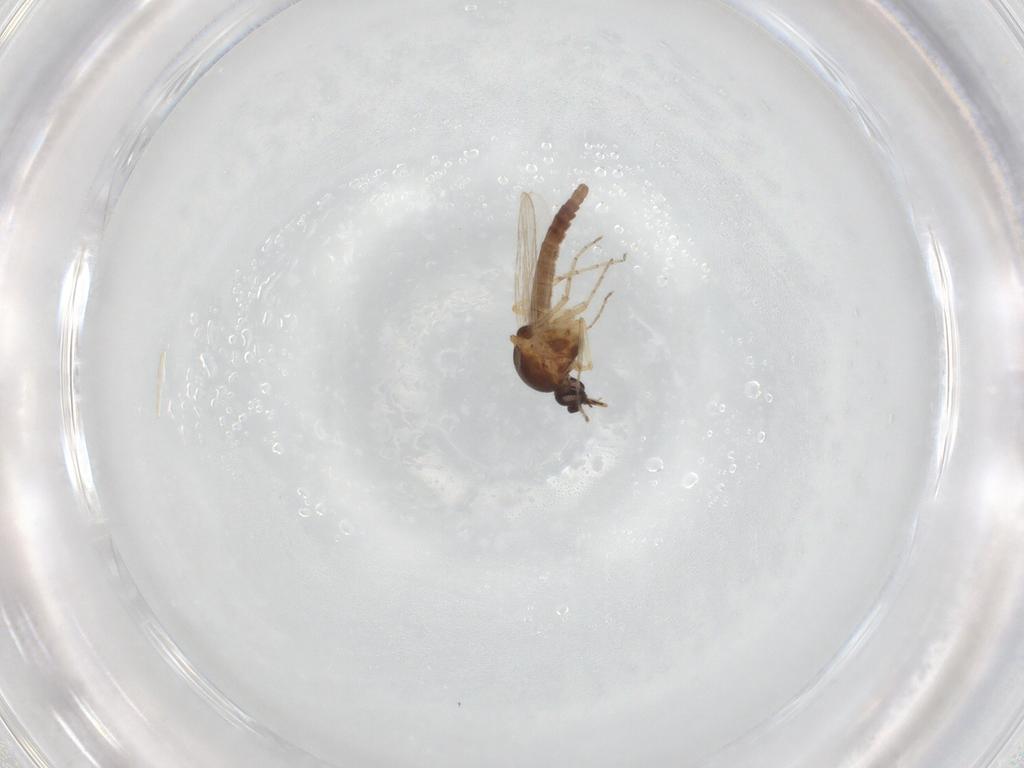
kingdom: Animalia
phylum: Arthropoda
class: Insecta
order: Diptera
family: Ceratopogonidae
